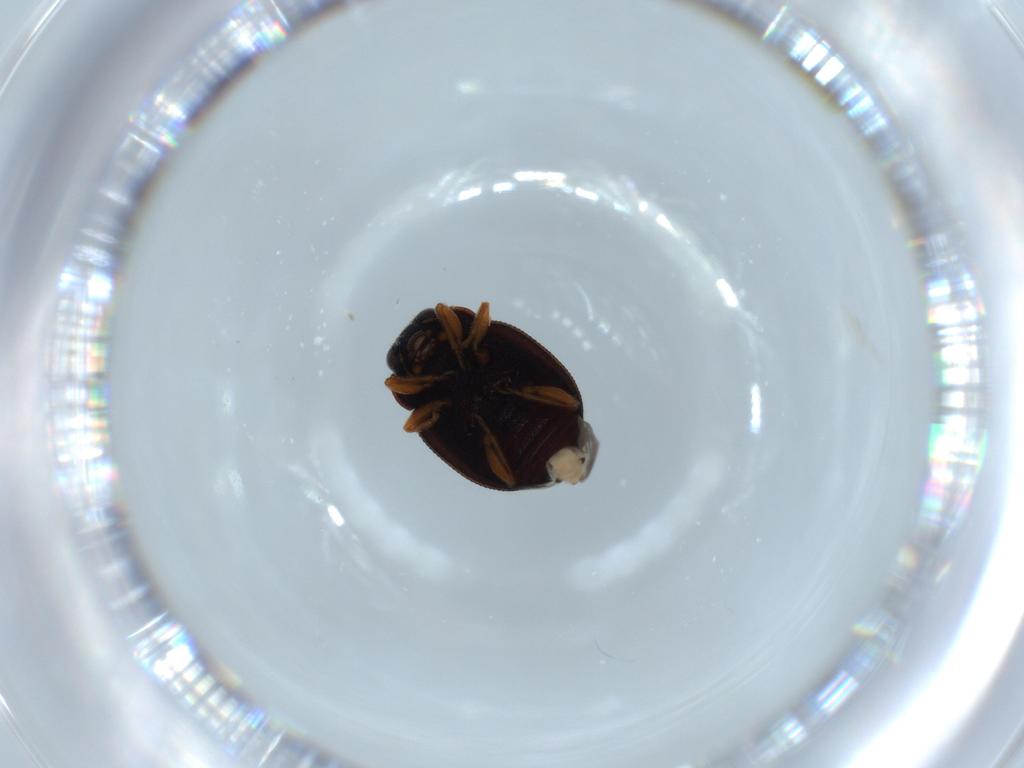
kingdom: Animalia
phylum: Arthropoda
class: Insecta
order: Coleoptera
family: Coccinellidae
